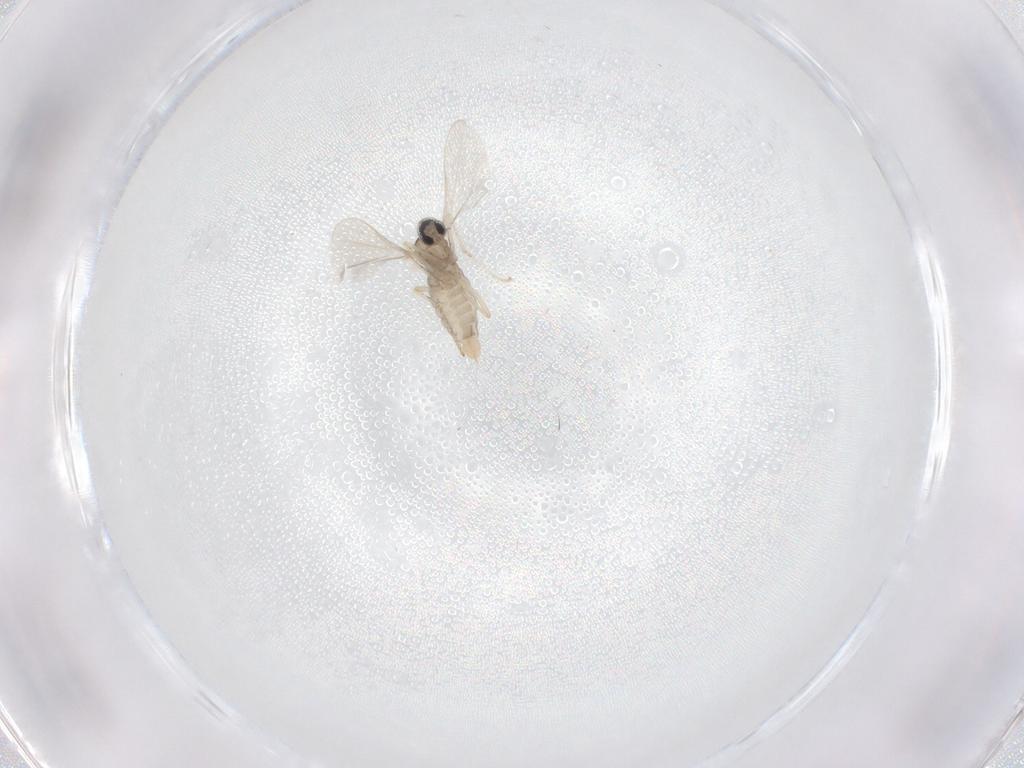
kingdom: Animalia
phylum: Arthropoda
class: Insecta
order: Diptera
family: Cecidomyiidae
